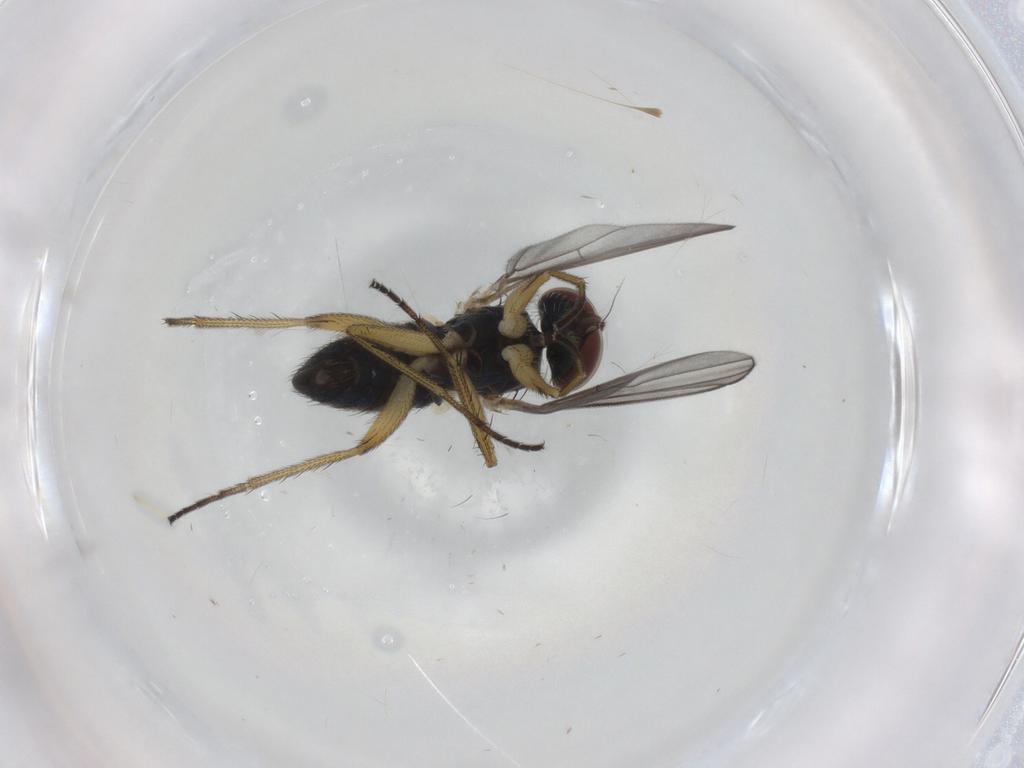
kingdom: Animalia
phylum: Arthropoda
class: Insecta
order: Diptera
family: Dolichopodidae
